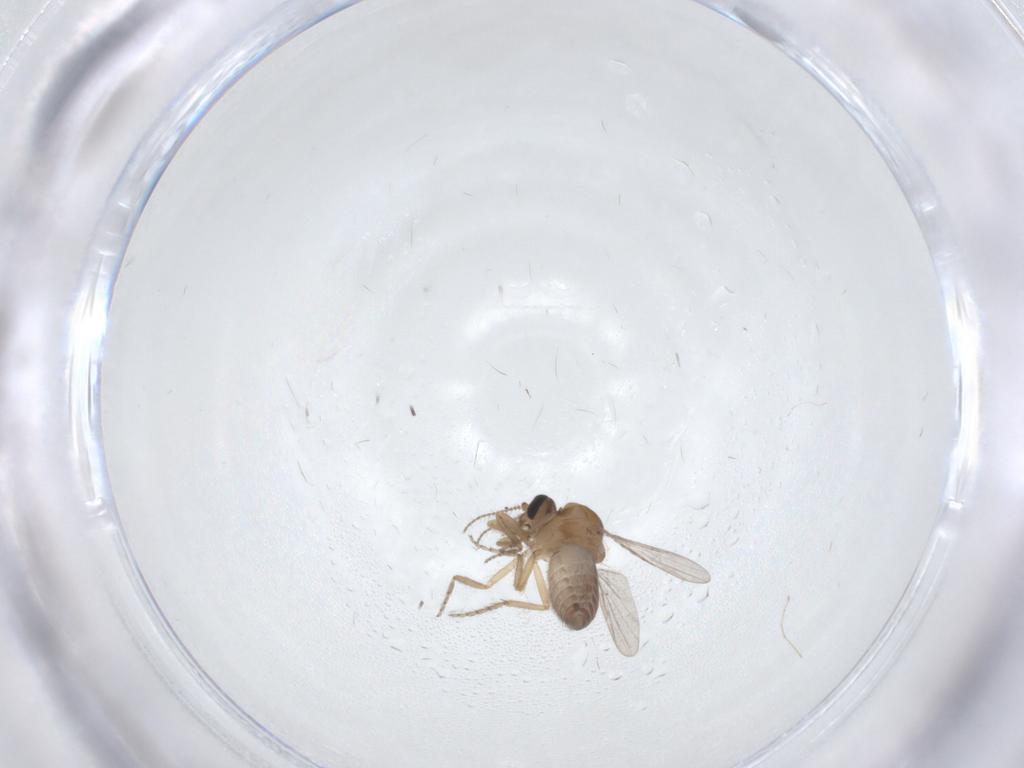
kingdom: Animalia
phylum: Arthropoda
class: Insecta
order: Diptera
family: Ceratopogonidae
